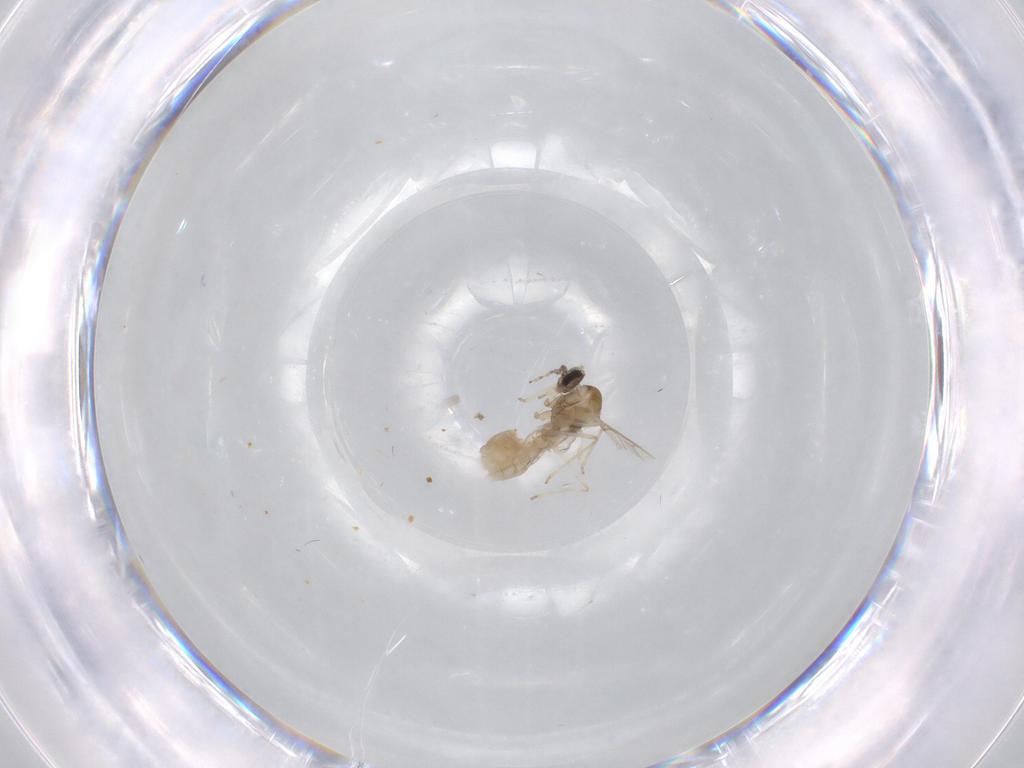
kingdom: Animalia
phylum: Arthropoda
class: Insecta
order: Diptera
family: Cecidomyiidae
